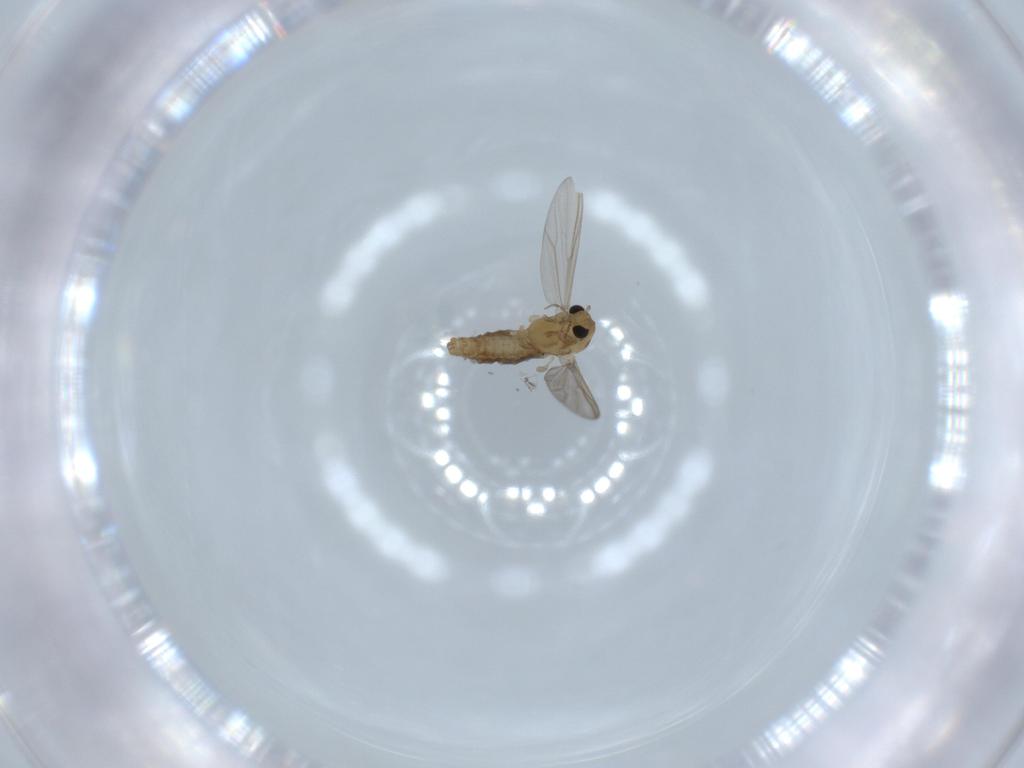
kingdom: Animalia
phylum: Arthropoda
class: Insecta
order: Diptera
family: Chironomidae
